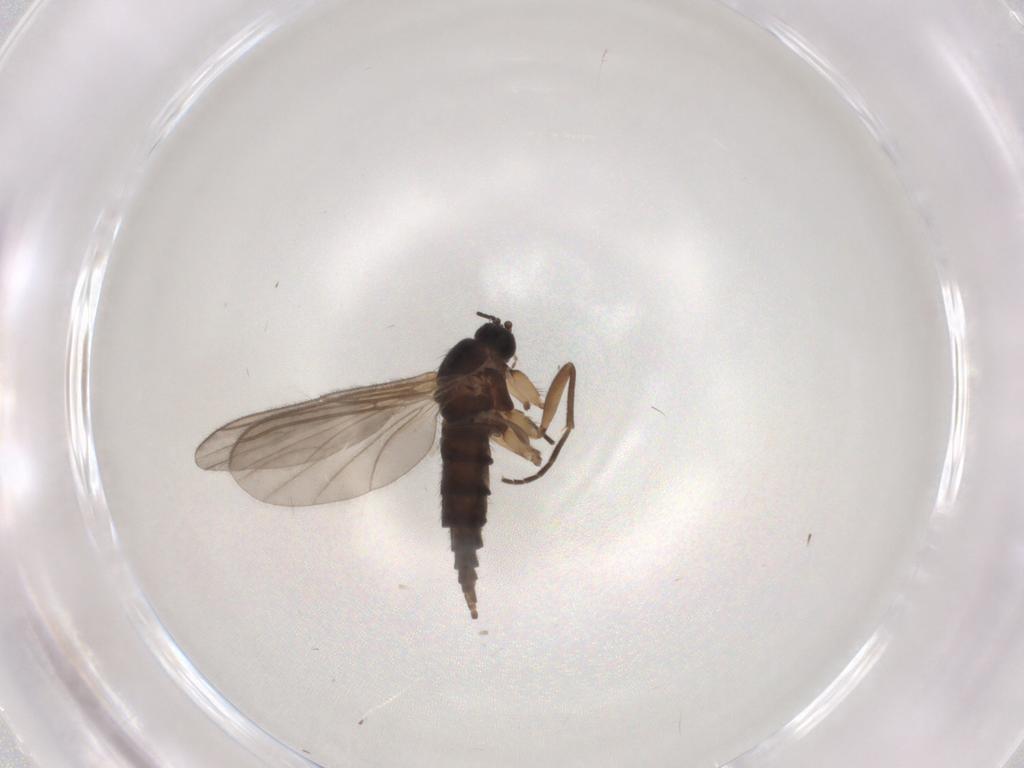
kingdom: Animalia
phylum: Arthropoda
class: Insecta
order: Diptera
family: Sciaridae
